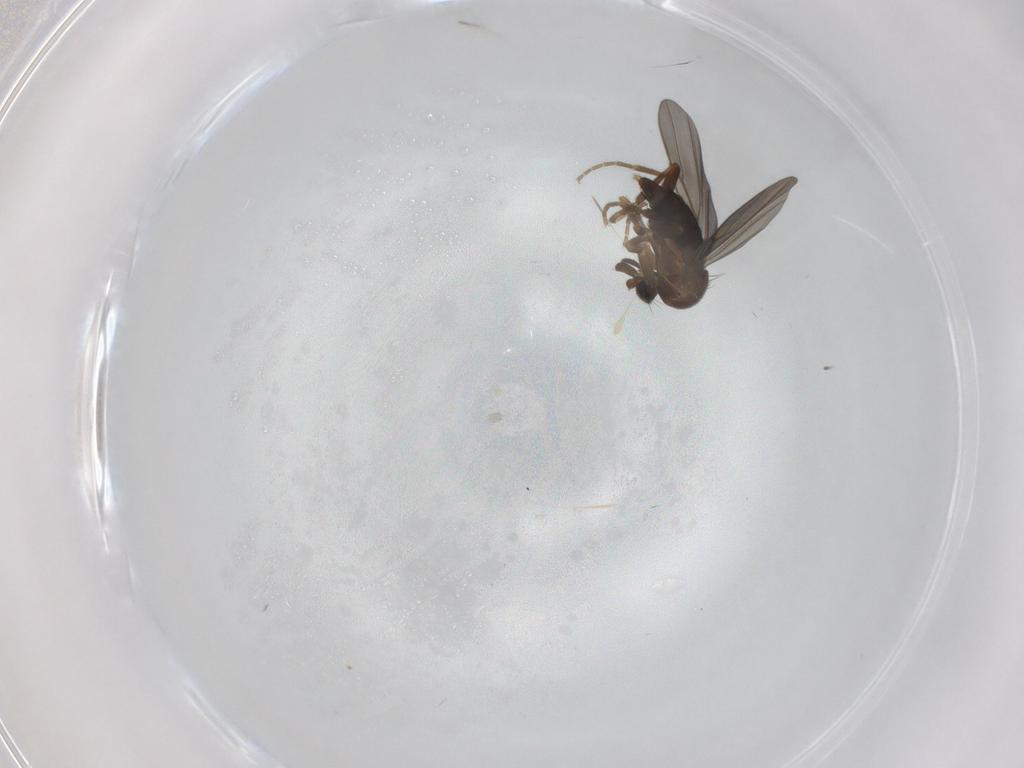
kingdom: Animalia
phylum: Arthropoda
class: Insecta
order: Diptera
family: Phoridae
